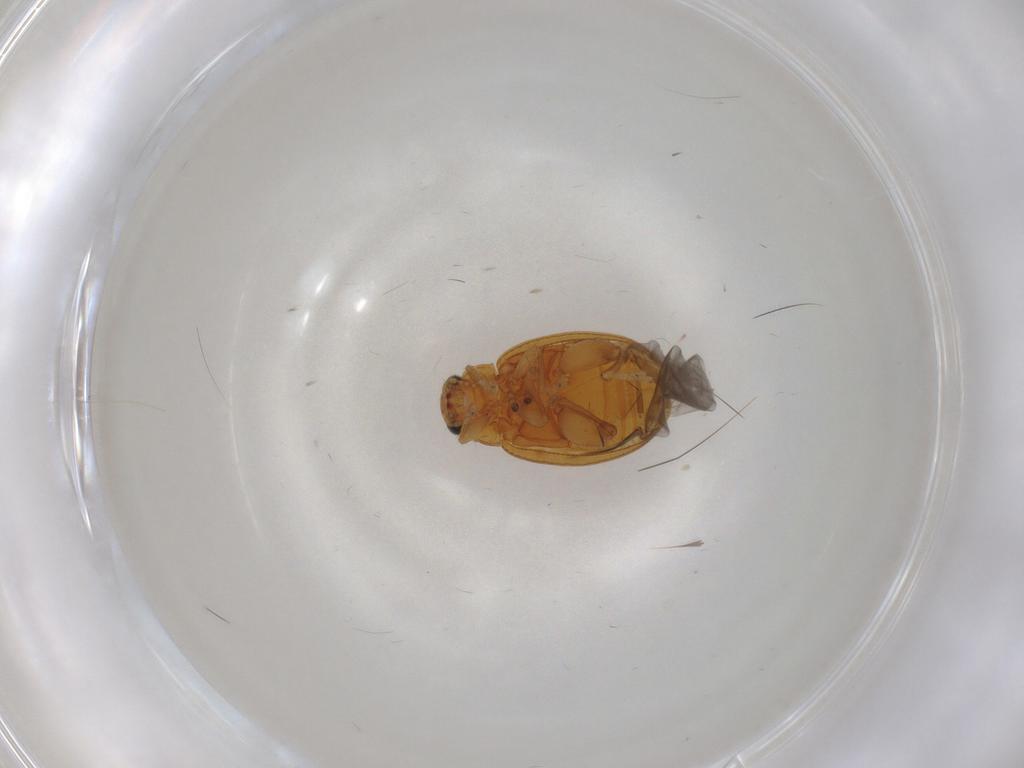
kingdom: Animalia
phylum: Arthropoda
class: Insecta
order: Coleoptera
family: Chrysomelidae
